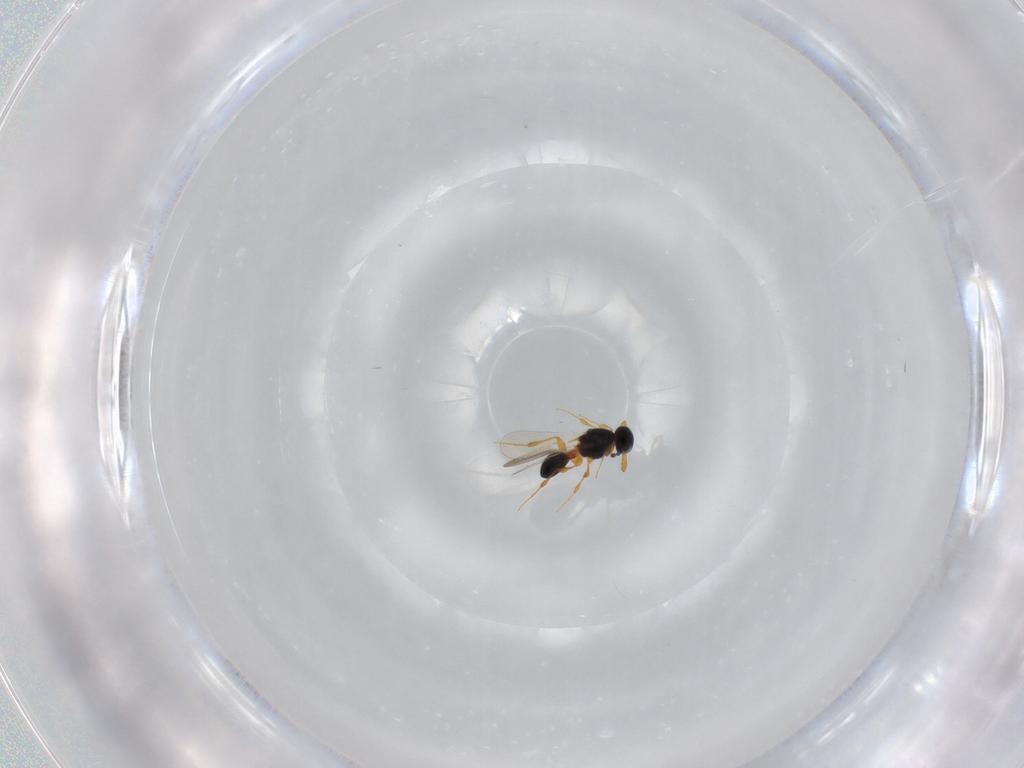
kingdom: Animalia
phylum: Arthropoda
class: Insecta
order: Hymenoptera
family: Platygastridae
